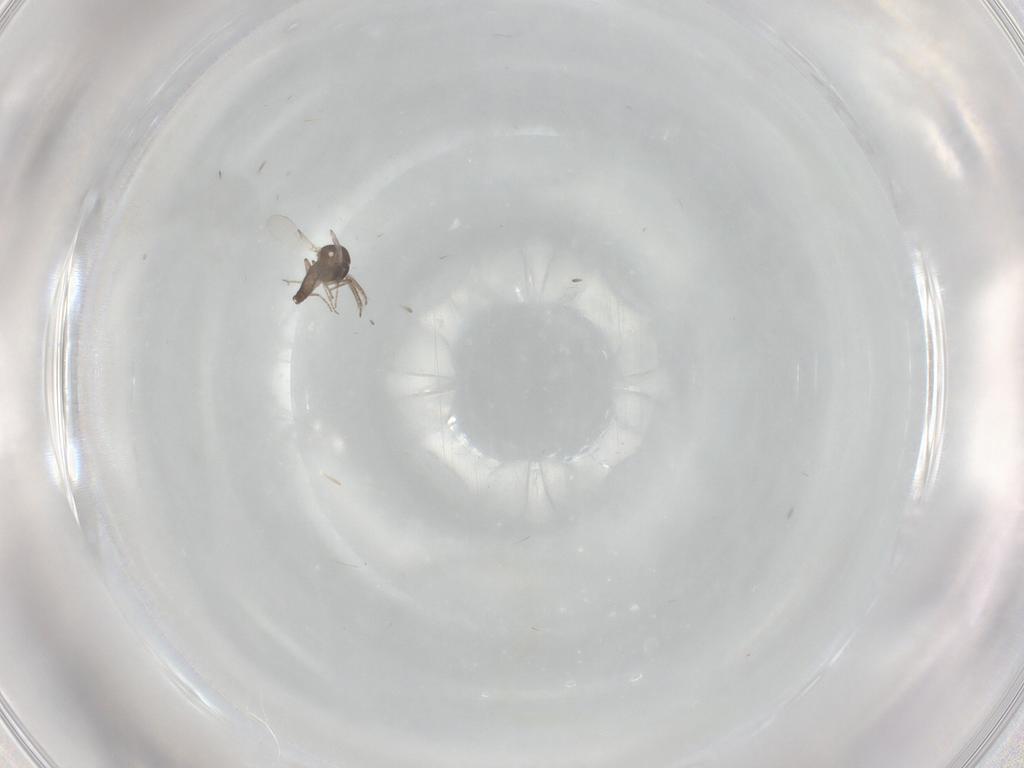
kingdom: Animalia
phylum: Arthropoda
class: Insecta
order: Diptera
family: Ceratopogonidae
